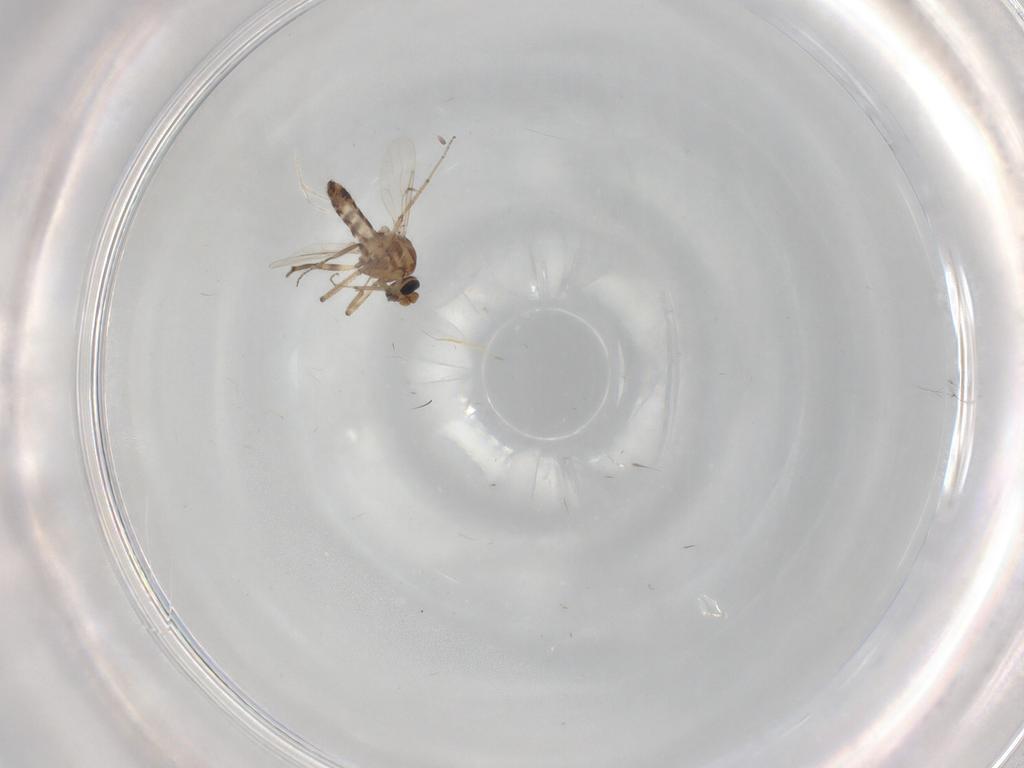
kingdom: Animalia
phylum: Arthropoda
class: Insecta
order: Diptera
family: Ceratopogonidae
